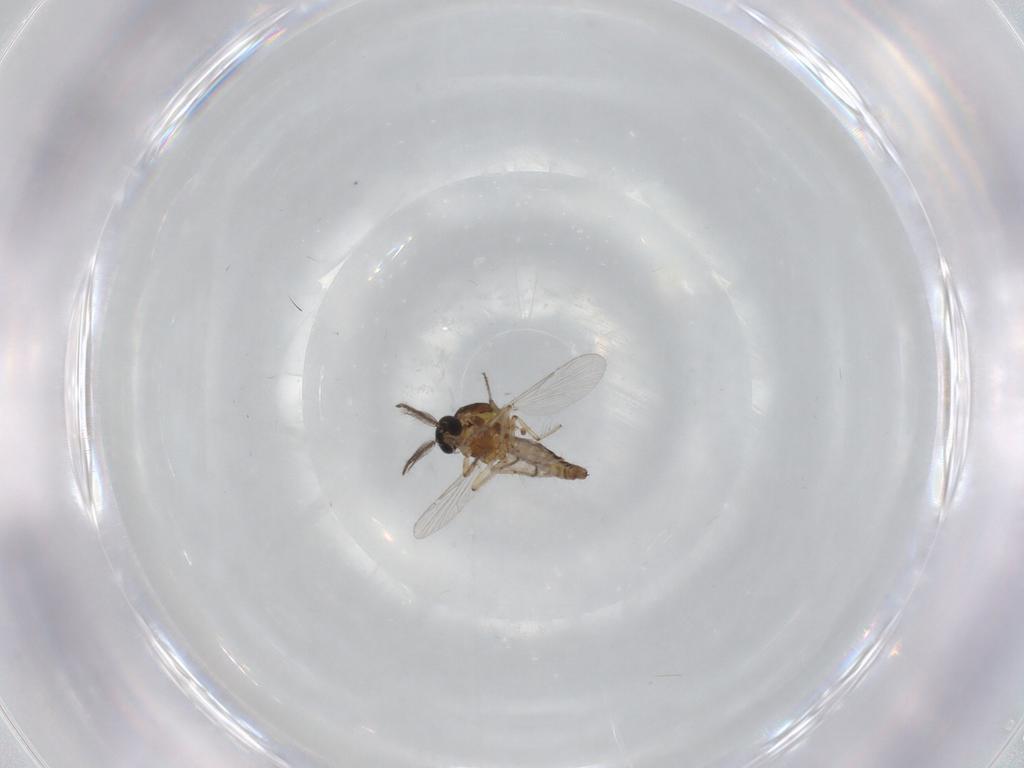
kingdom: Animalia
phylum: Arthropoda
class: Insecta
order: Diptera
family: Ceratopogonidae
